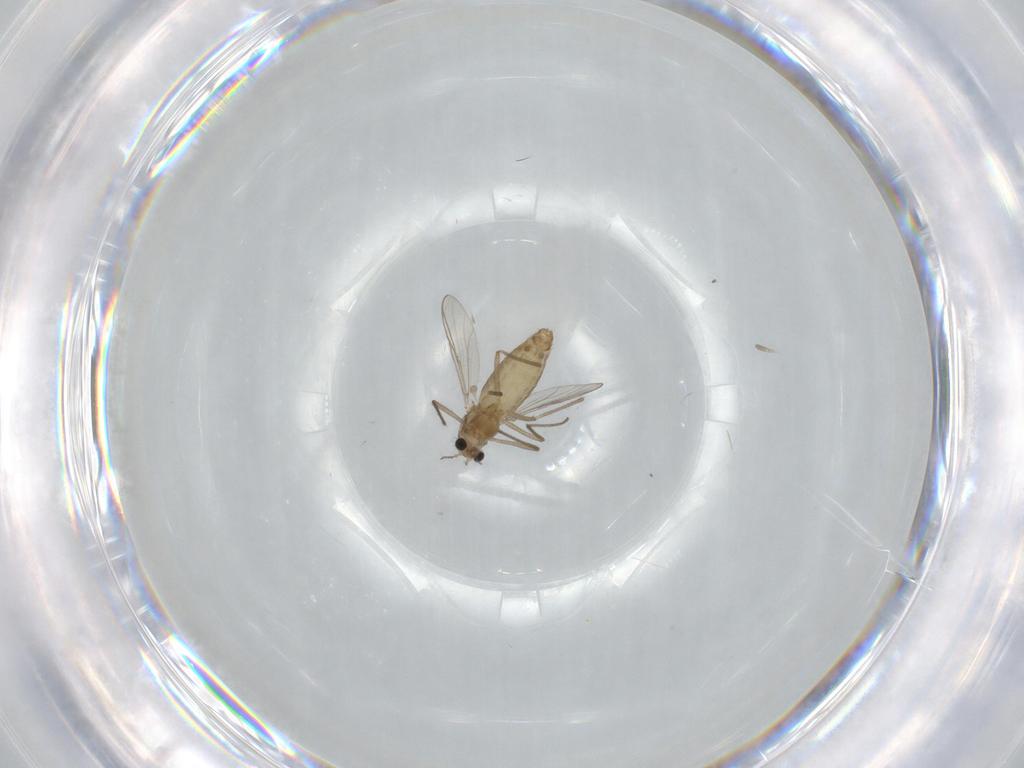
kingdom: Animalia
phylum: Arthropoda
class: Insecta
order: Diptera
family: Chironomidae
